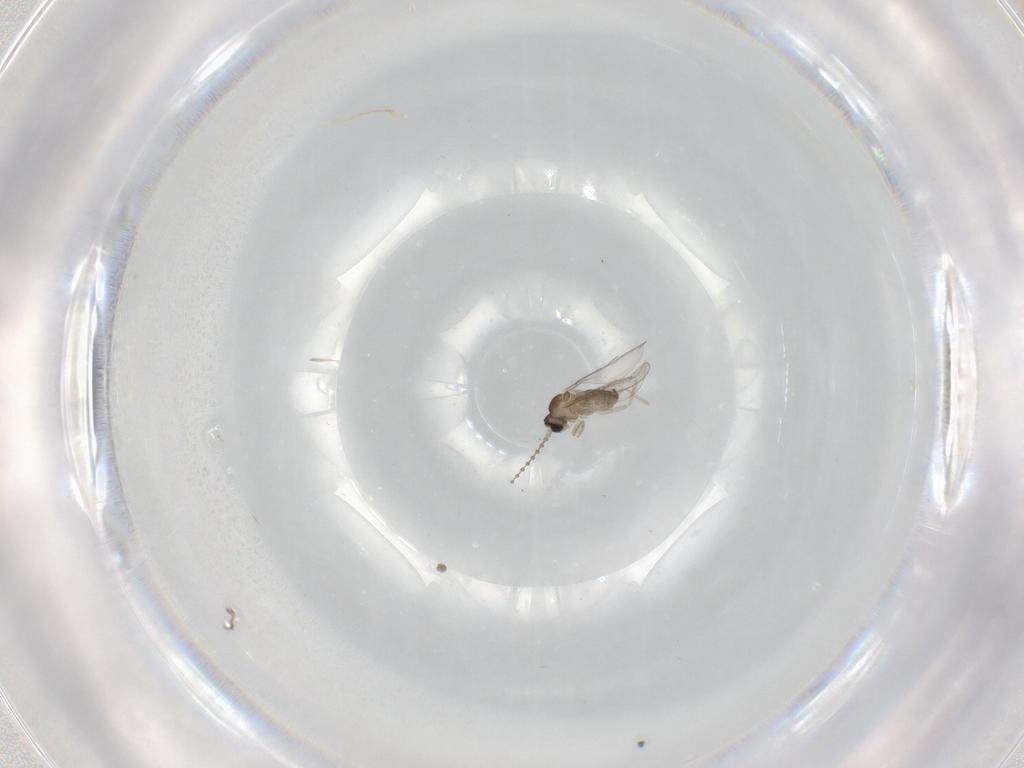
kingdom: Animalia
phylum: Arthropoda
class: Insecta
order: Diptera
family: Cecidomyiidae
